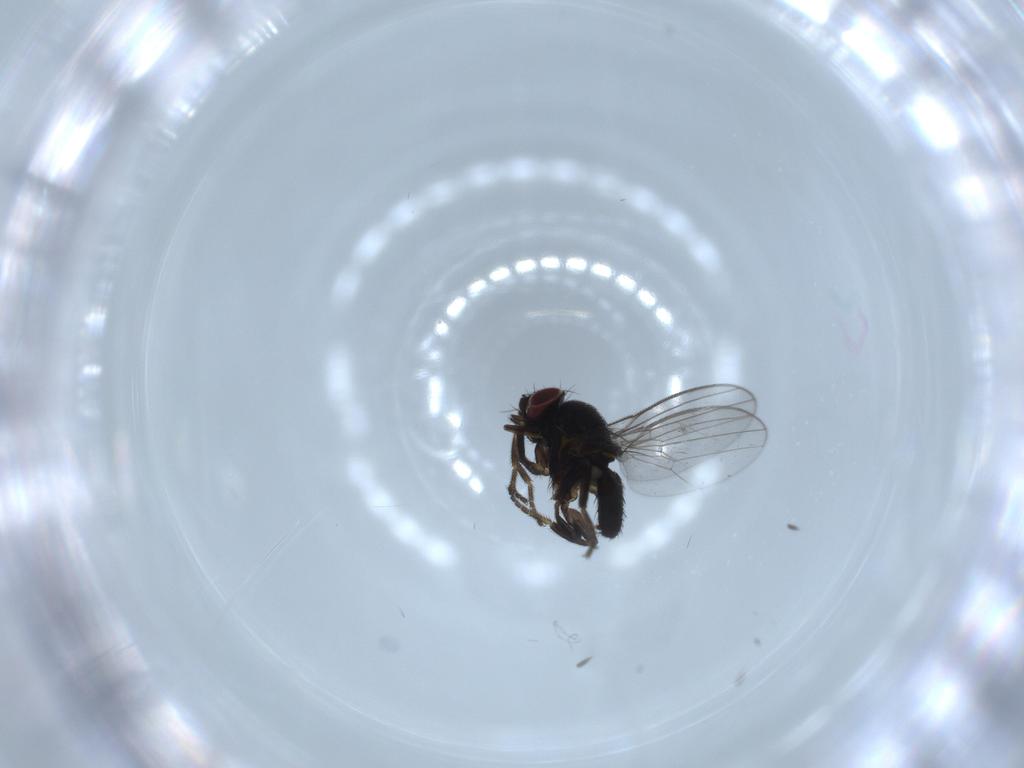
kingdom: Animalia
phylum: Arthropoda
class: Insecta
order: Diptera
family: Milichiidae
